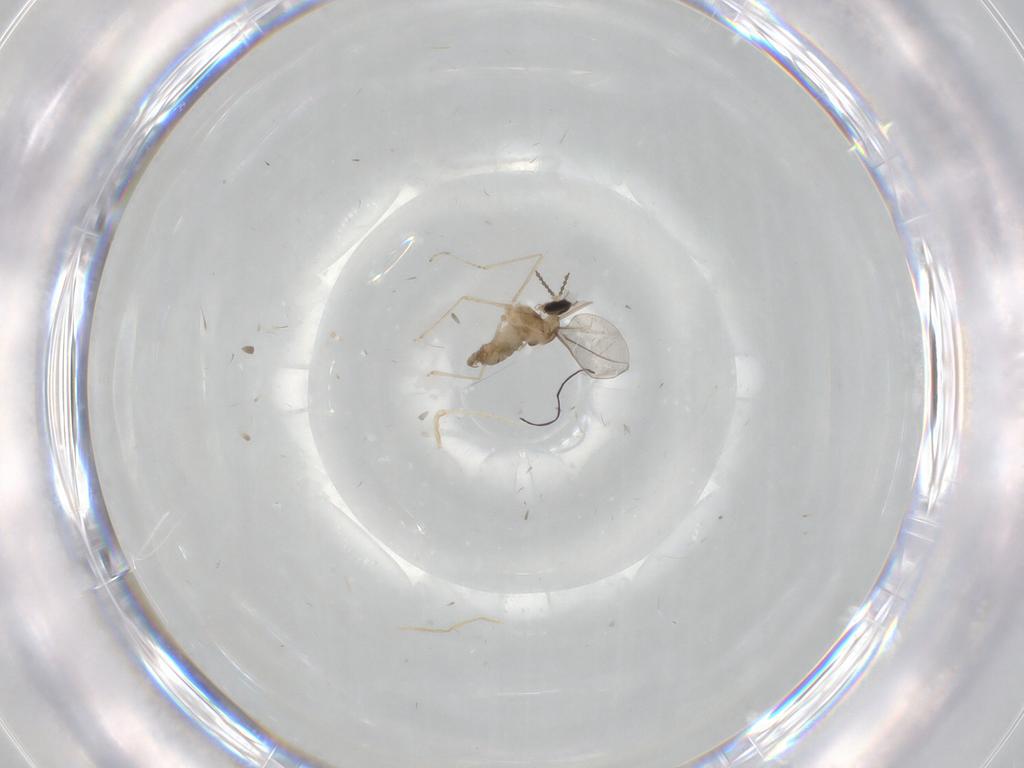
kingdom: Animalia
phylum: Arthropoda
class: Insecta
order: Diptera
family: Cecidomyiidae
